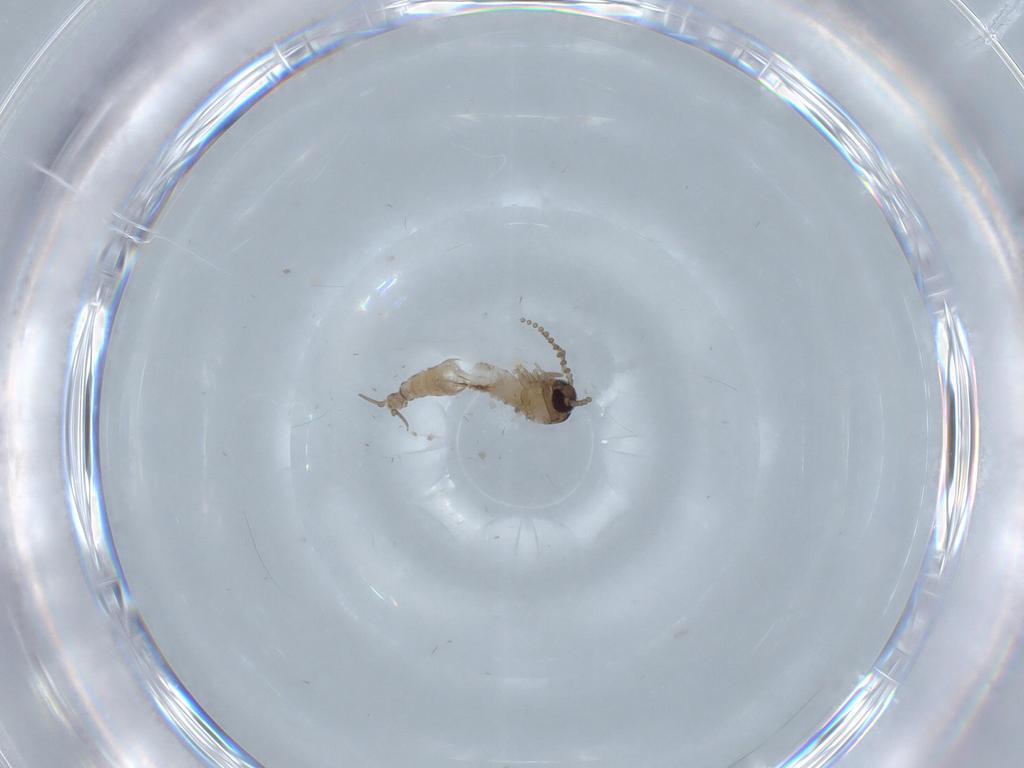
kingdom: Animalia
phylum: Arthropoda
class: Insecta
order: Diptera
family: Psychodidae
